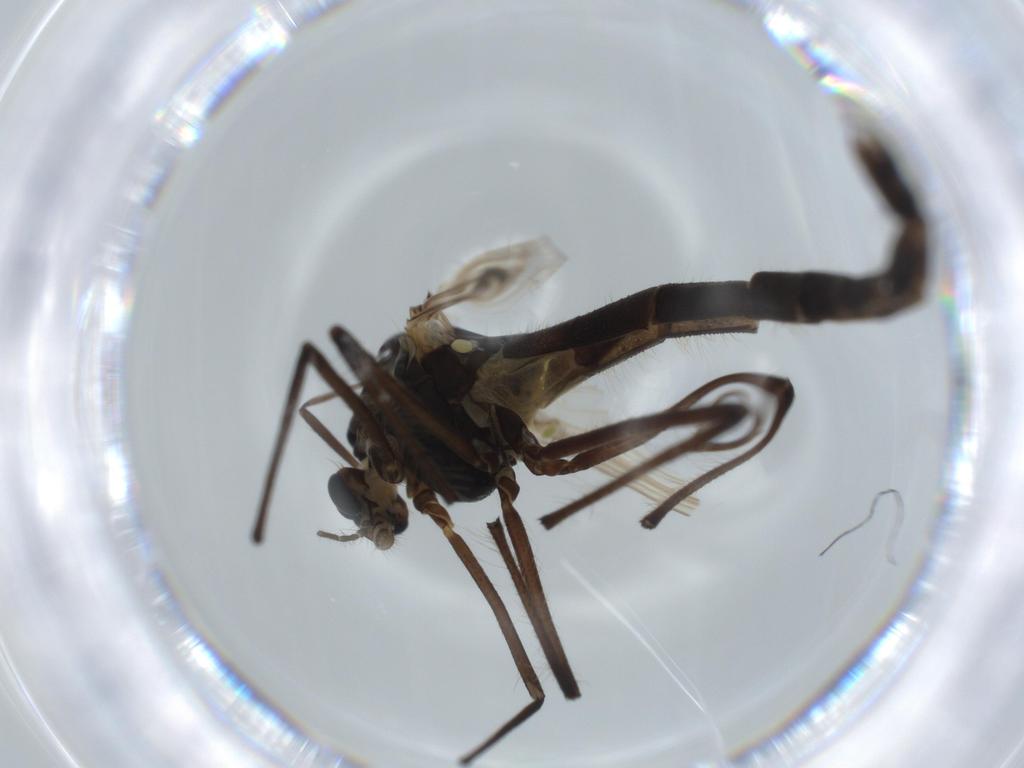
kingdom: Animalia
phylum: Arthropoda
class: Insecta
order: Diptera
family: Chironomidae
